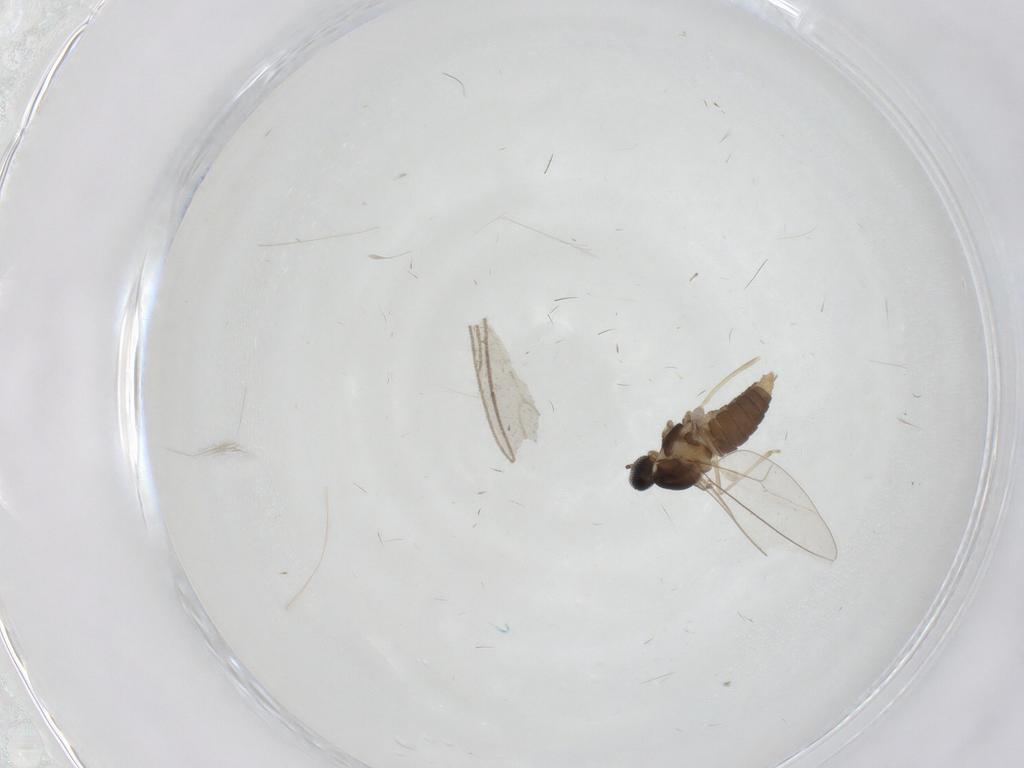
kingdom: Animalia
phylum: Arthropoda
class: Insecta
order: Diptera
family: Cecidomyiidae
